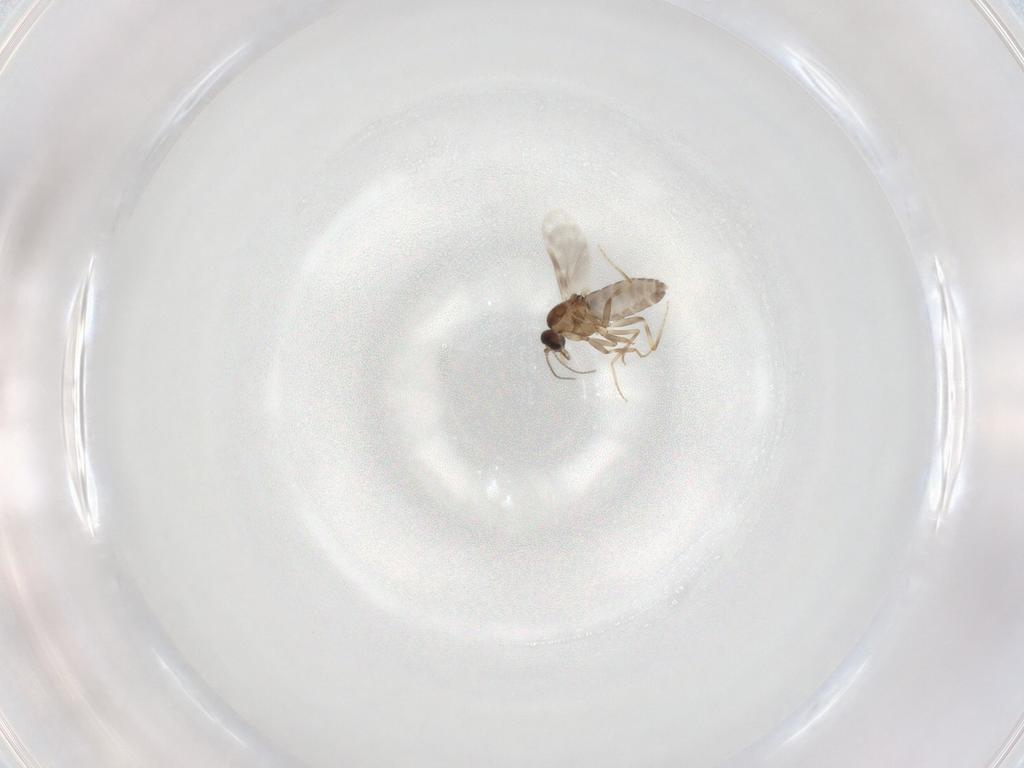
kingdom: Animalia
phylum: Arthropoda
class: Insecta
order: Diptera
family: Ceratopogonidae
